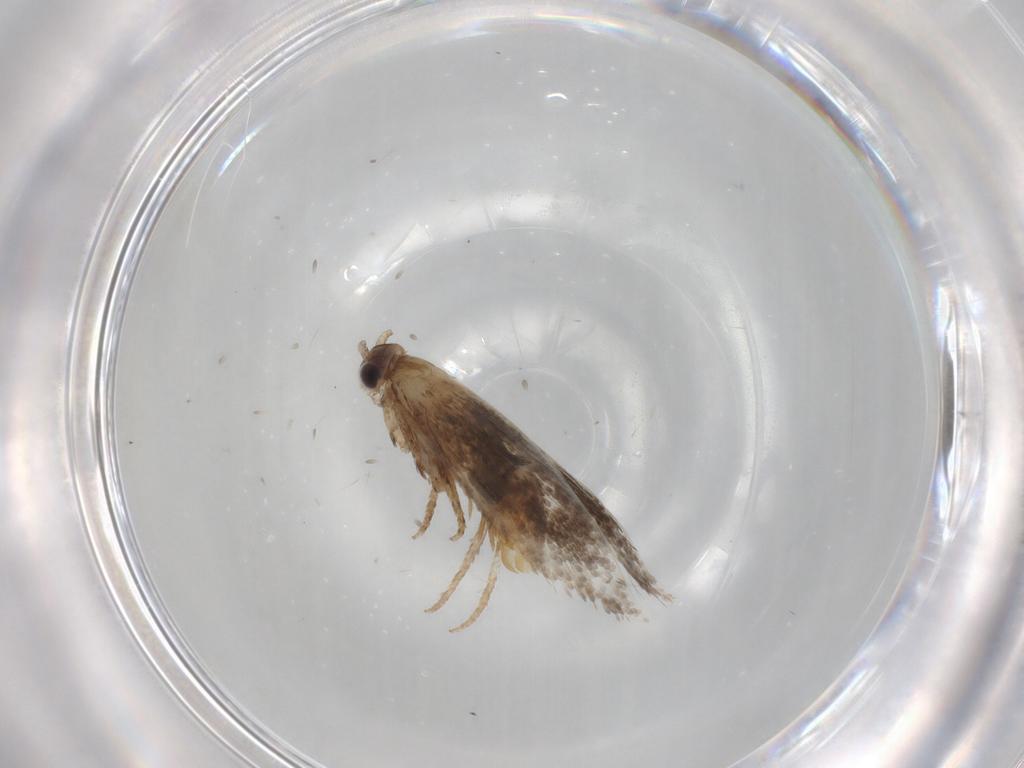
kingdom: Animalia
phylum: Arthropoda
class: Insecta
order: Lepidoptera
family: Tineidae
